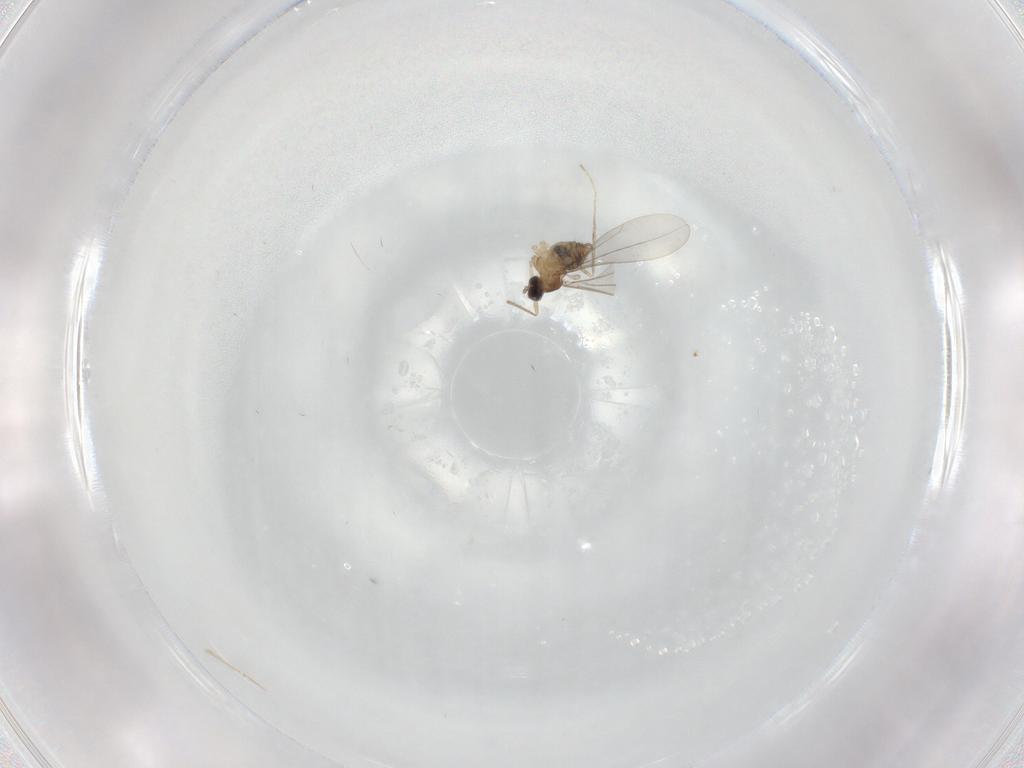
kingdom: Animalia
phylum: Arthropoda
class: Insecta
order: Diptera
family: Cecidomyiidae
